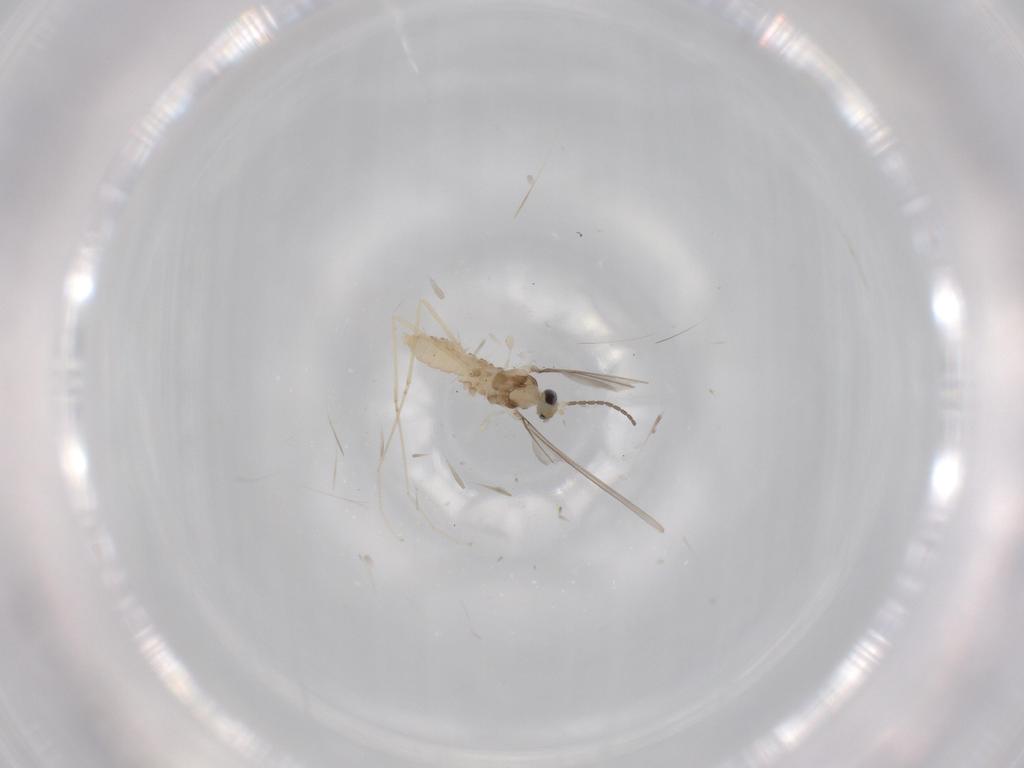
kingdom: Animalia
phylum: Arthropoda
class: Insecta
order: Diptera
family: Cecidomyiidae
